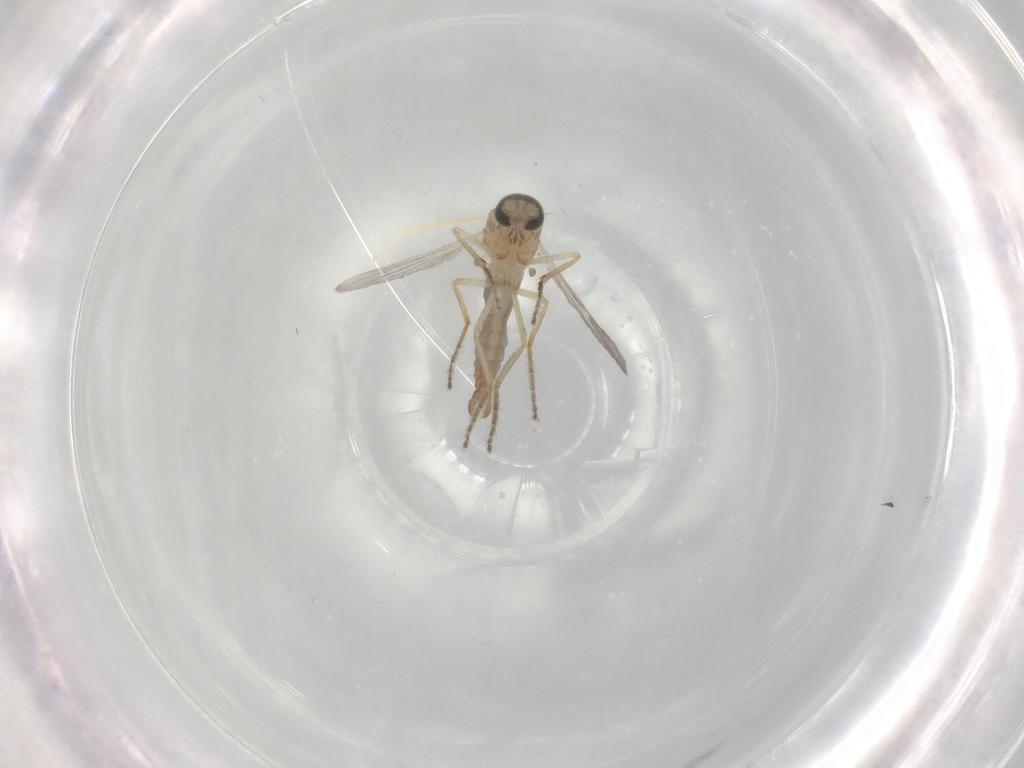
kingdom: Animalia
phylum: Arthropoda
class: Insecta
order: Diptera
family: Ceratopogonidae
